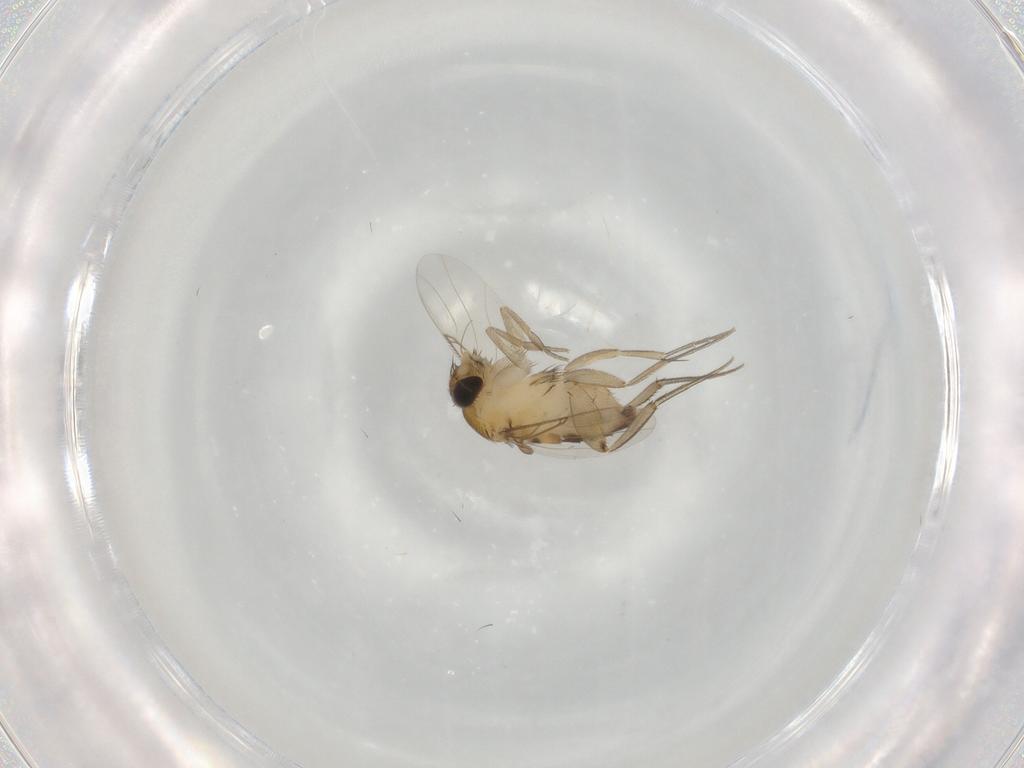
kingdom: Animalia
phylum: Arthropoda
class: Insecta
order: Diptera
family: Phoridae
